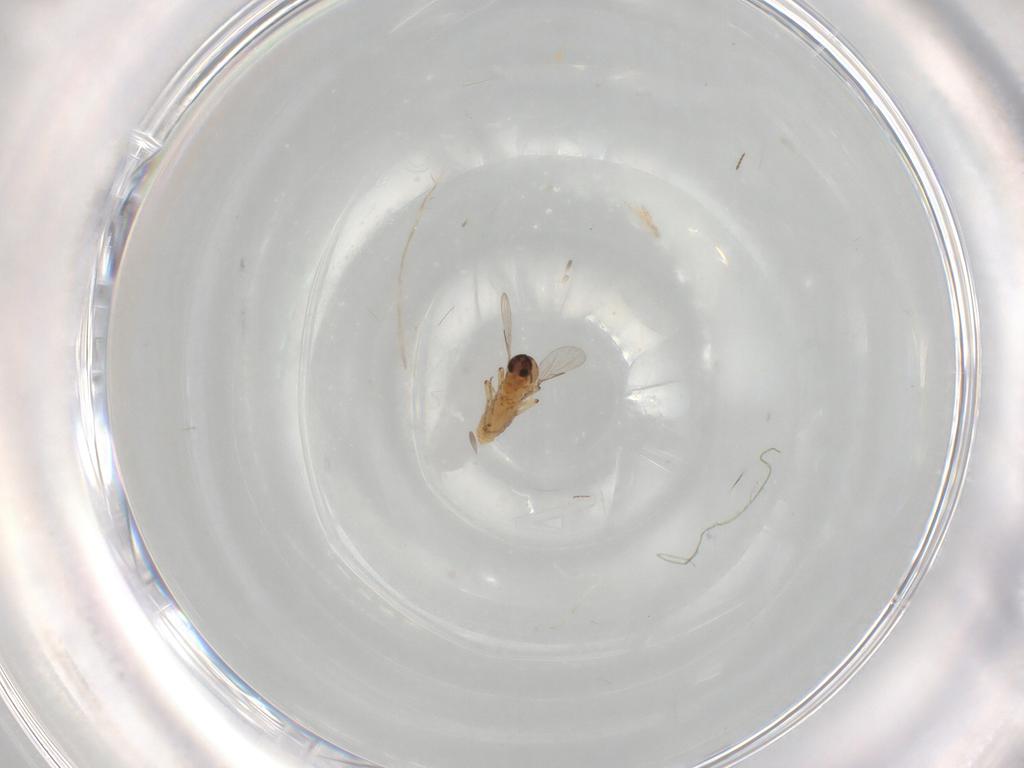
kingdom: Animalia
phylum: Arthropoda
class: Insecta
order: Diptera
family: Ceratopogonidae
